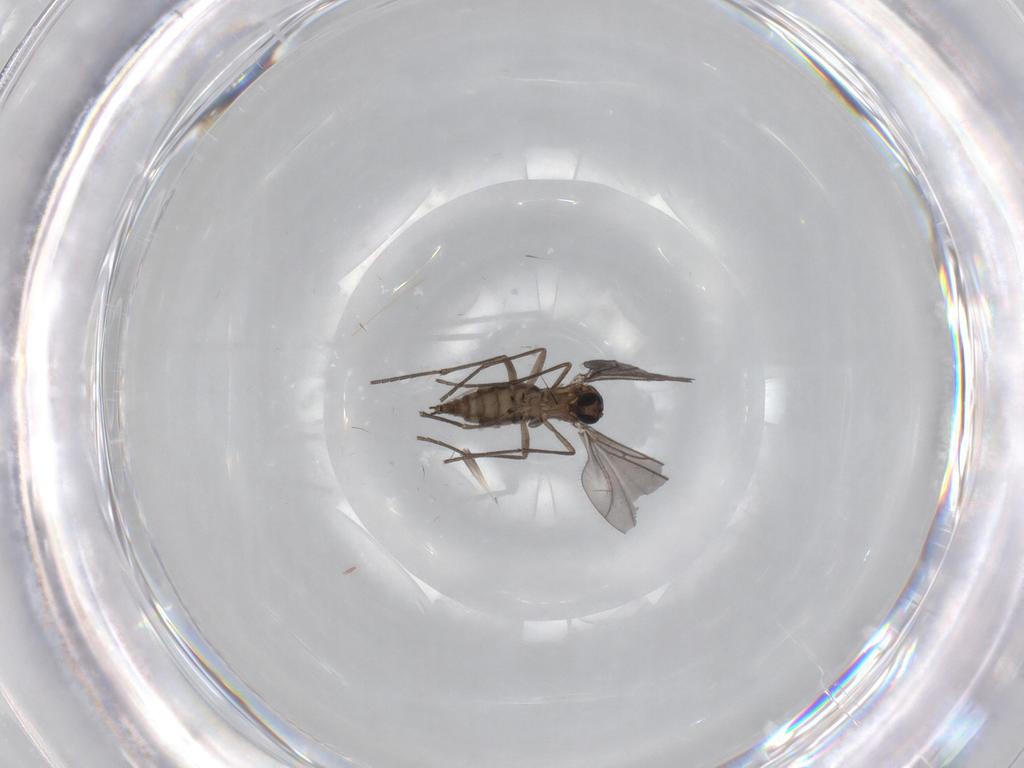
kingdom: Animalia
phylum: Arthropoda
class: Insecta
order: Diptera
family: Sciaridae
